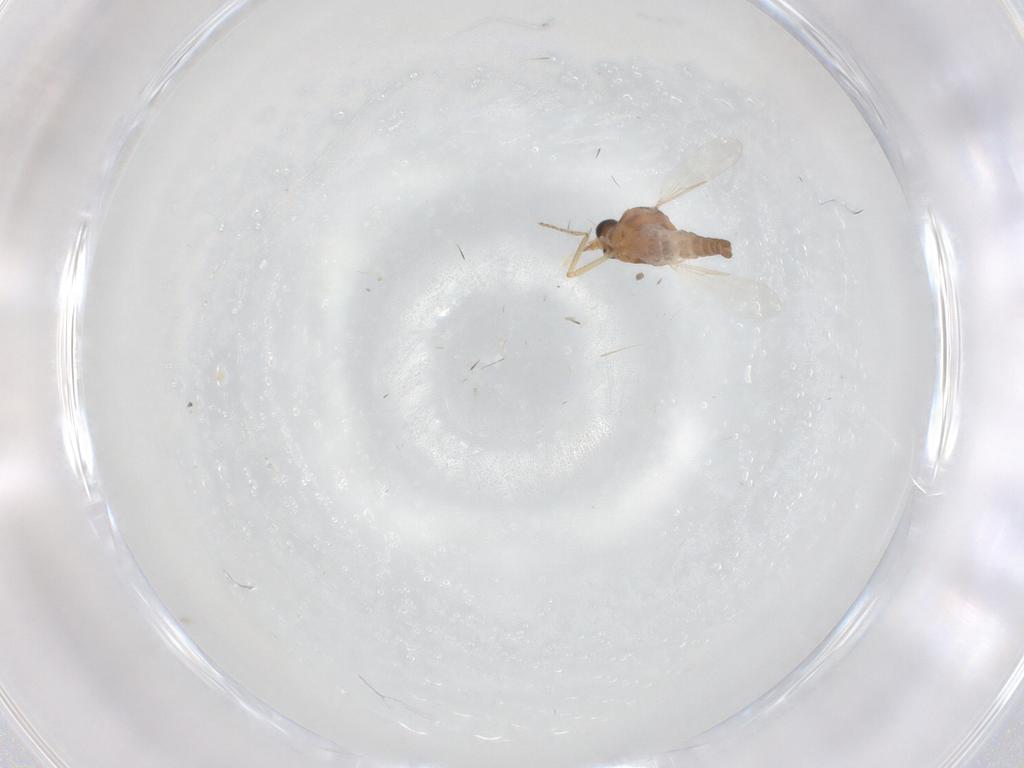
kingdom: Animalia
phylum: Arthropoda
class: Insecta
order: Diptera
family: Ceratopogonidae
